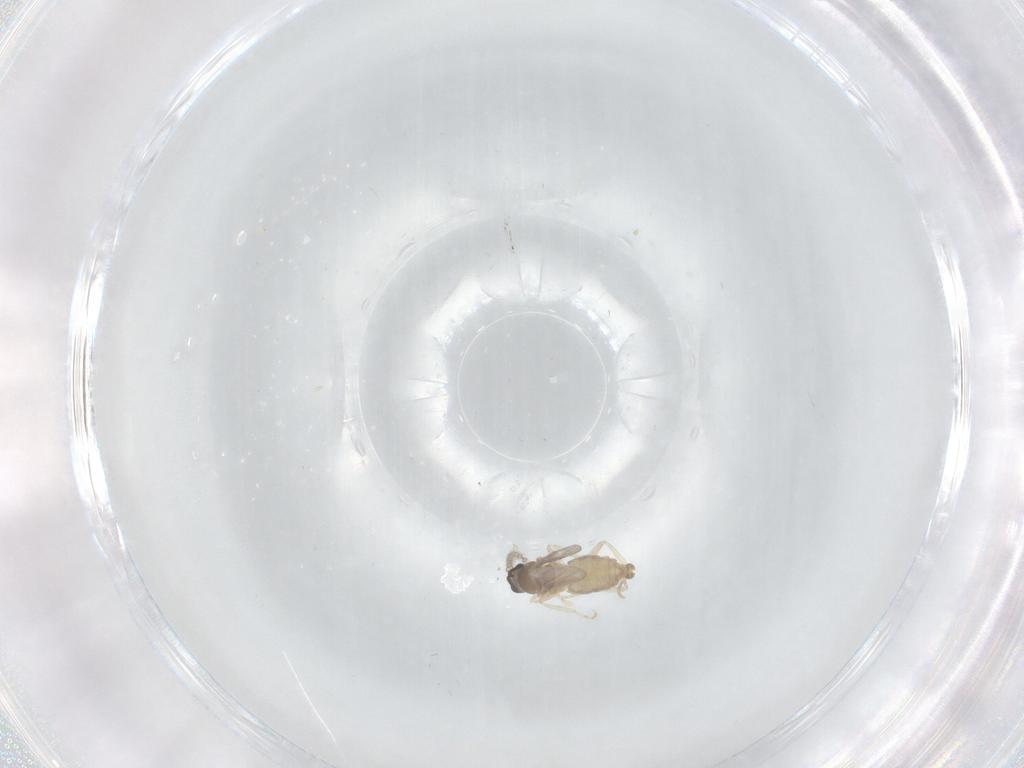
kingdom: Animalia
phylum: Arthropoda
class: Insecta
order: Diptera
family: Cecidomyiidae
